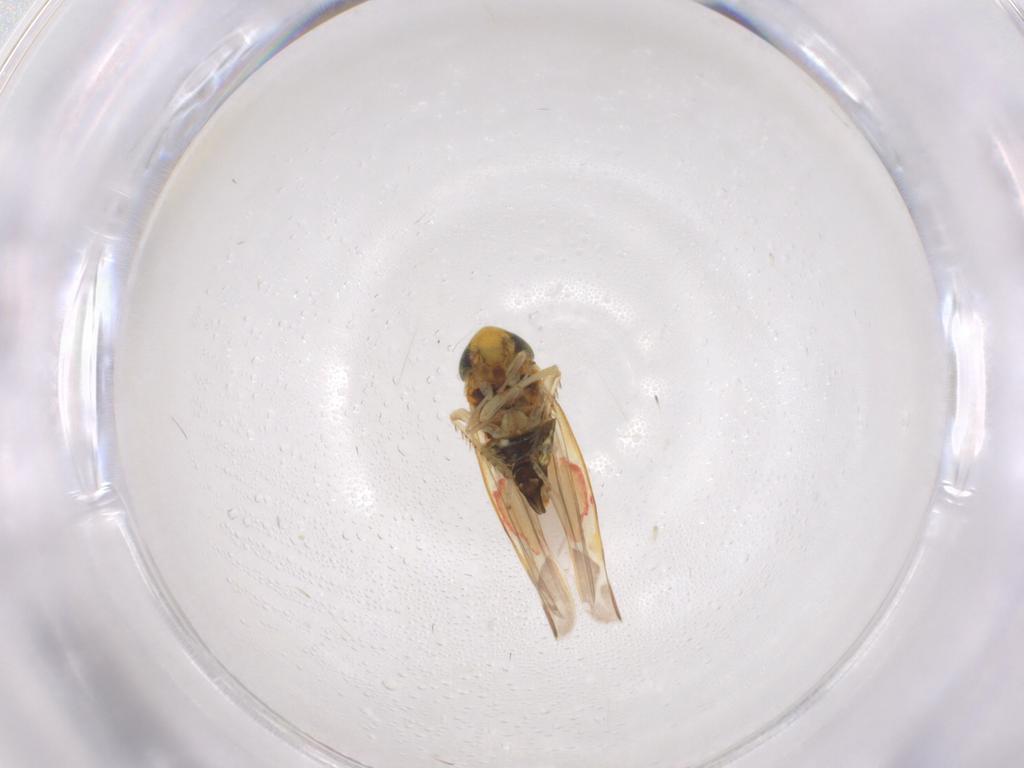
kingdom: Animalia
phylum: Arthropoda
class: Insecta
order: Hemiptera
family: Cicadellidae
